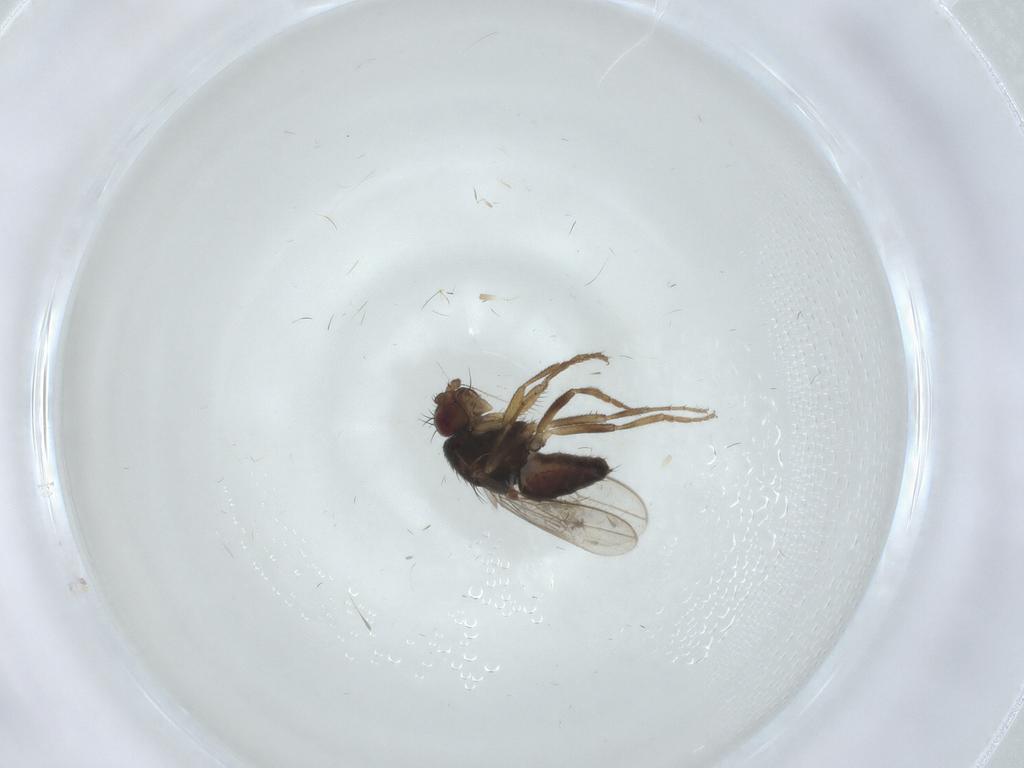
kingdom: Animalia
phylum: Arthropoda
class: Insecta
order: Diptera
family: Sphaeroceridae
